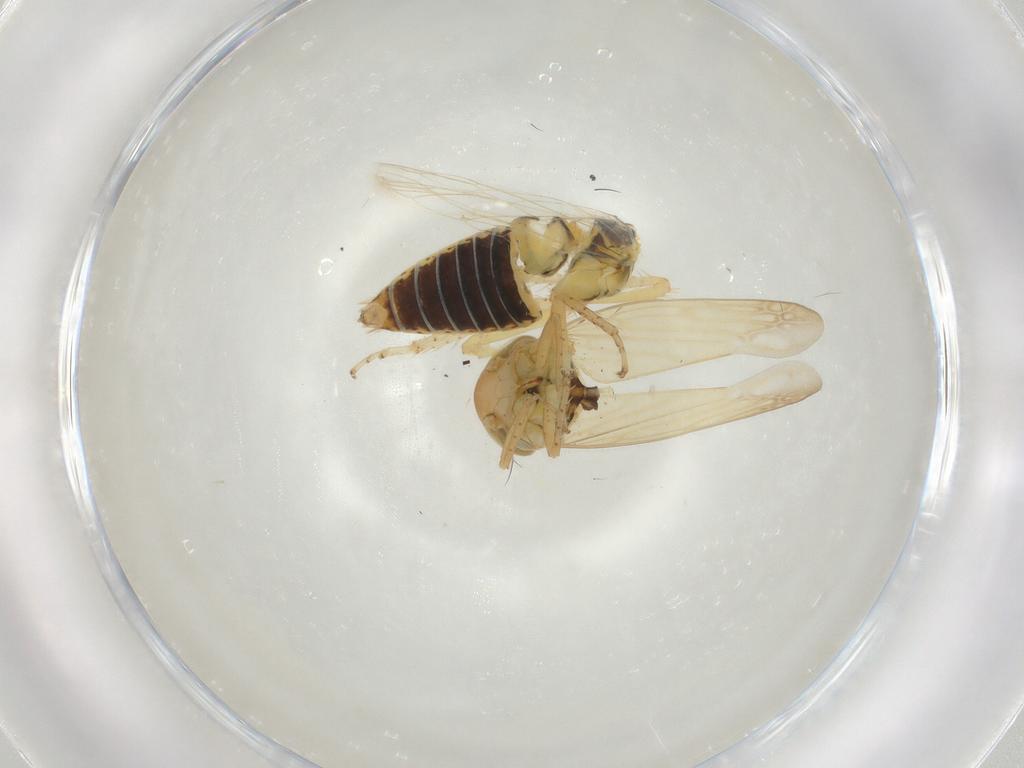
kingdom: Animalia
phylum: Arthropoda
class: Insecta
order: Hemiptera
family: Cicadellidae
